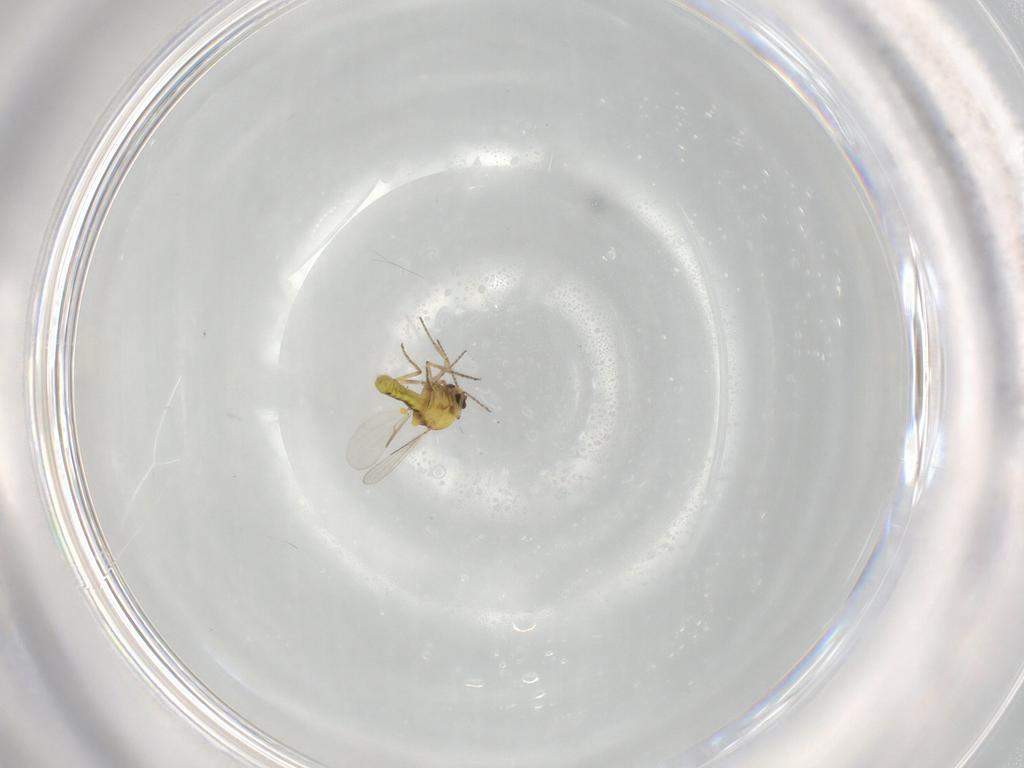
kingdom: Animalia
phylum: Arthropoda
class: Insecta
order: Diptera
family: Ceratopogonidae
